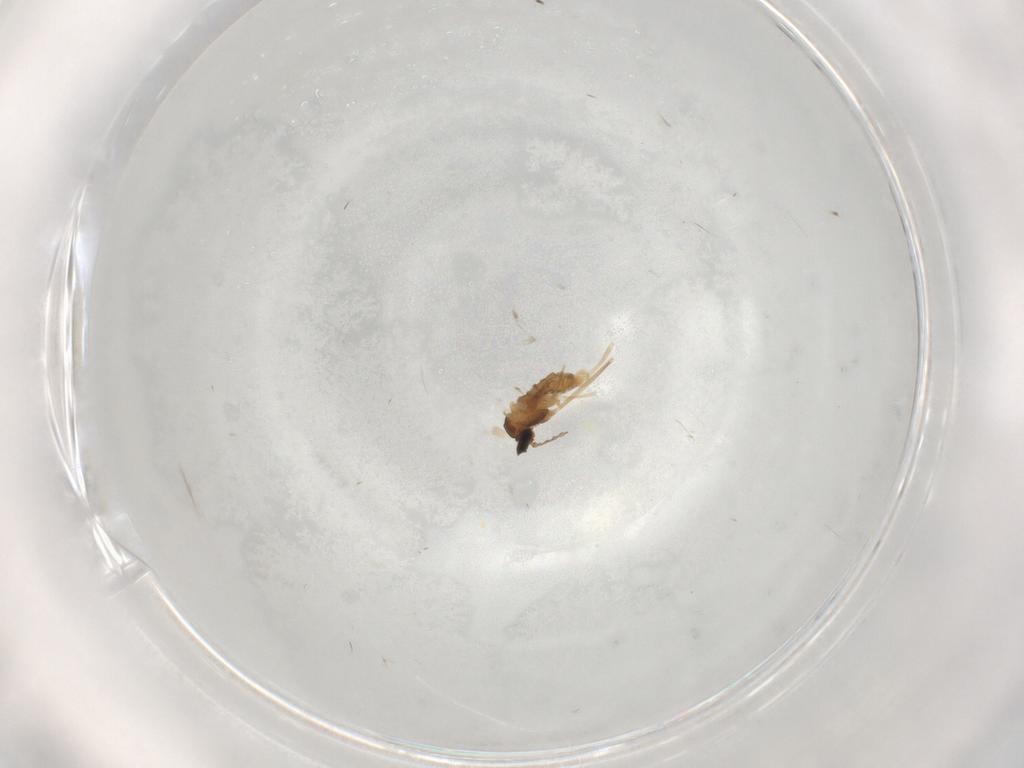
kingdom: Animalia
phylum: Arthropoda
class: Insecta
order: Diptera
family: Cecidomyiidae
